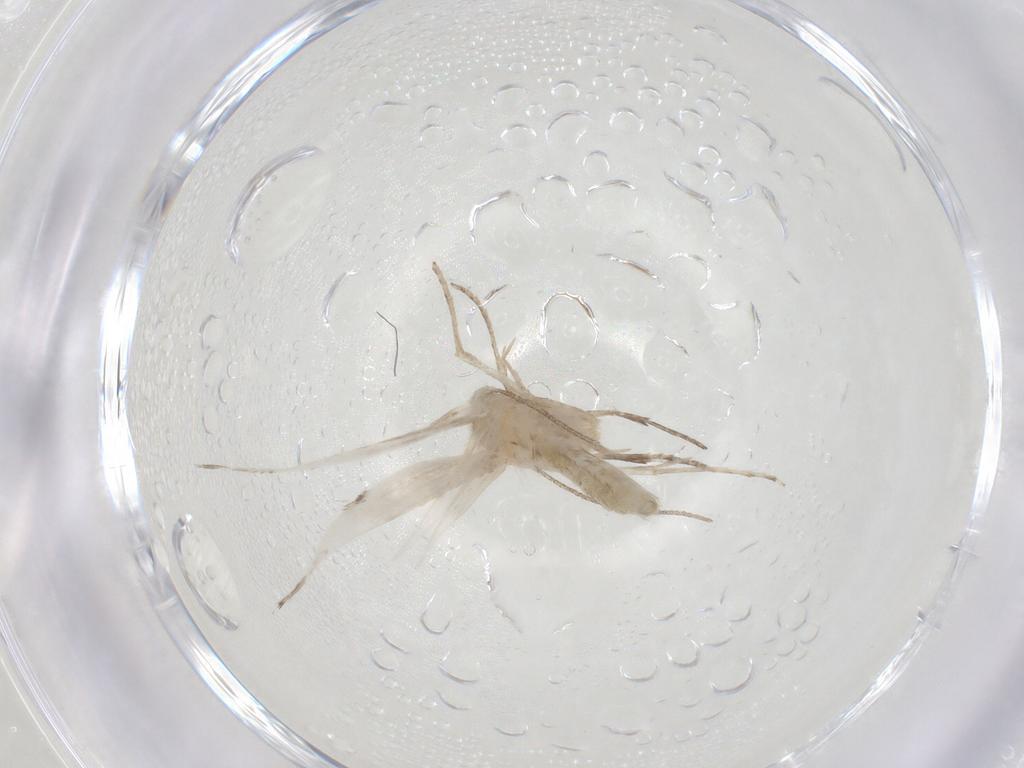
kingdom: Animalia
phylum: Arthropoda
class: Insecta
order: Lepidoptera
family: Lyonetiidae
